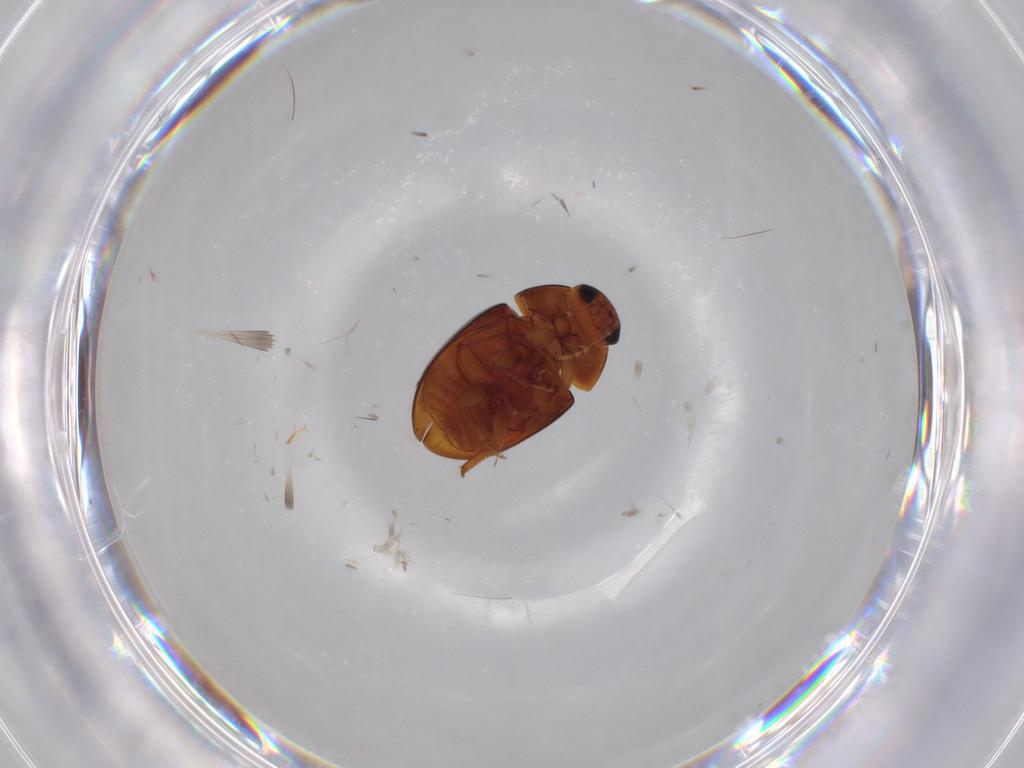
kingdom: Animalia
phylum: Arthropoda
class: Insecta
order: Coleoptera
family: Phalacridae
